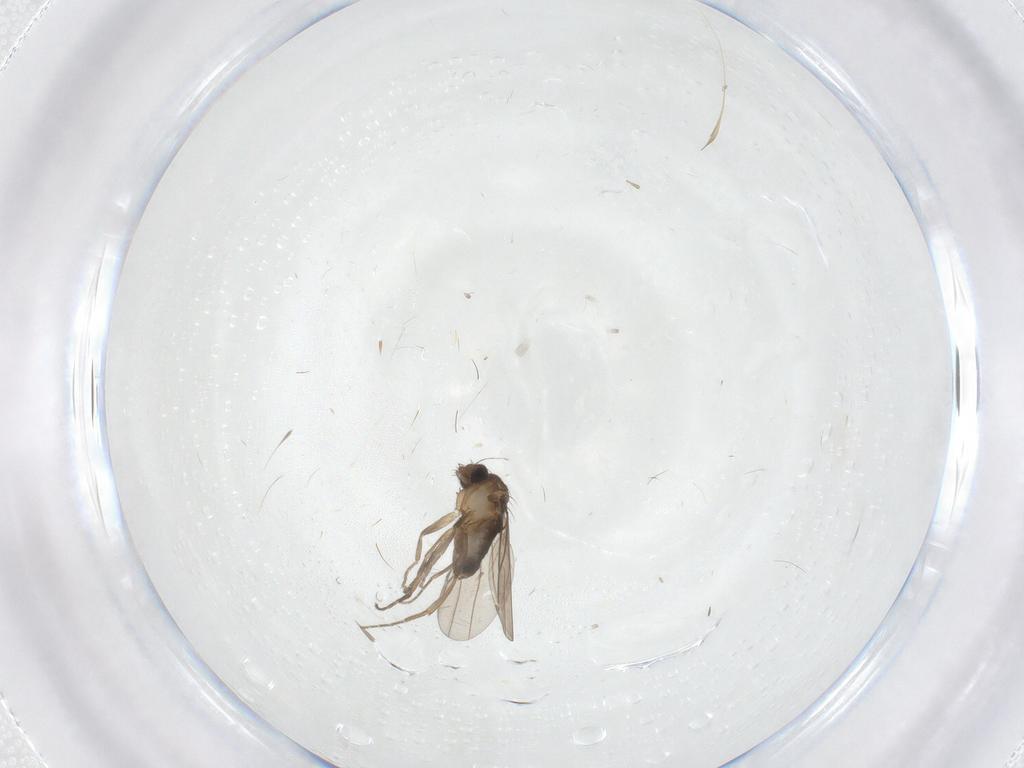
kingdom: Animalia
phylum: Arthropoda
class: Insecta
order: Diptera
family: Phoridae
